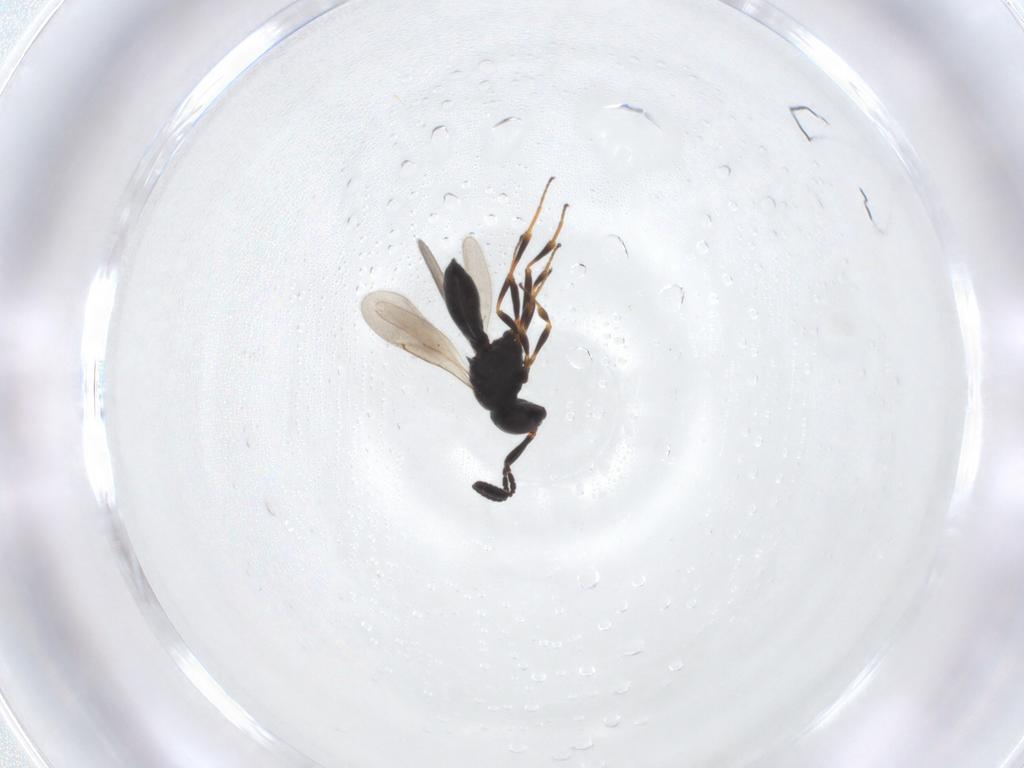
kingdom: Animalia
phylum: Arthropoda
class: Insecta
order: Hymenoptera
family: Scelionidae
